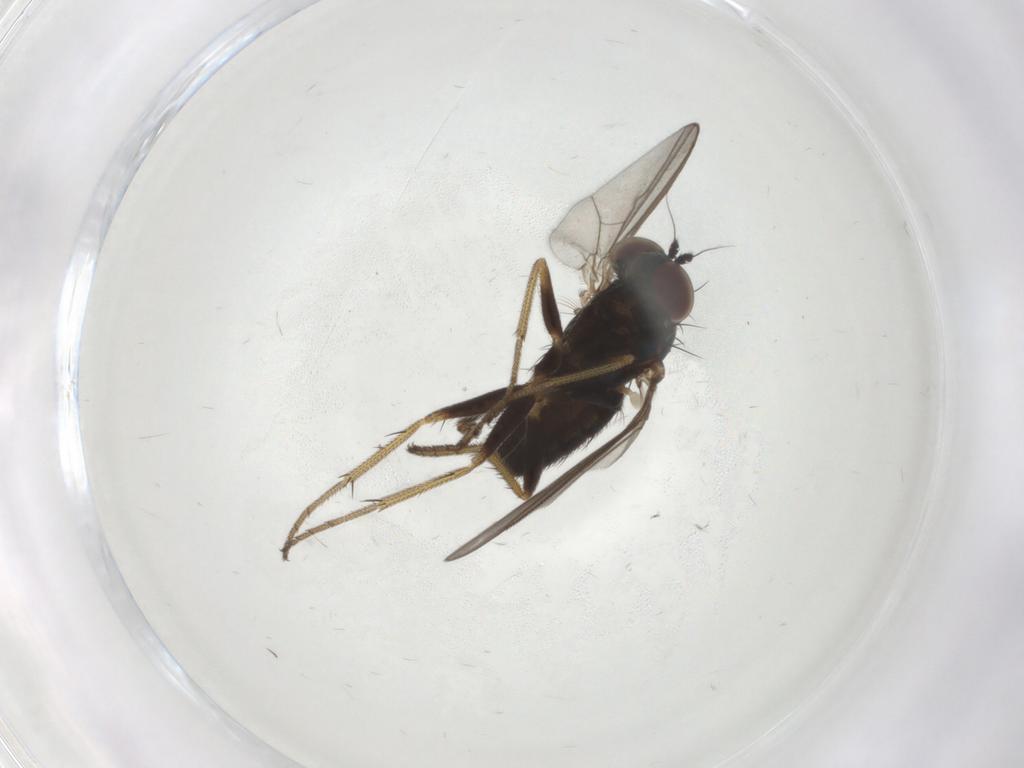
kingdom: Animalia
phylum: Arthropoda
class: Insecta
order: Diptera
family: Dolichopodidae
